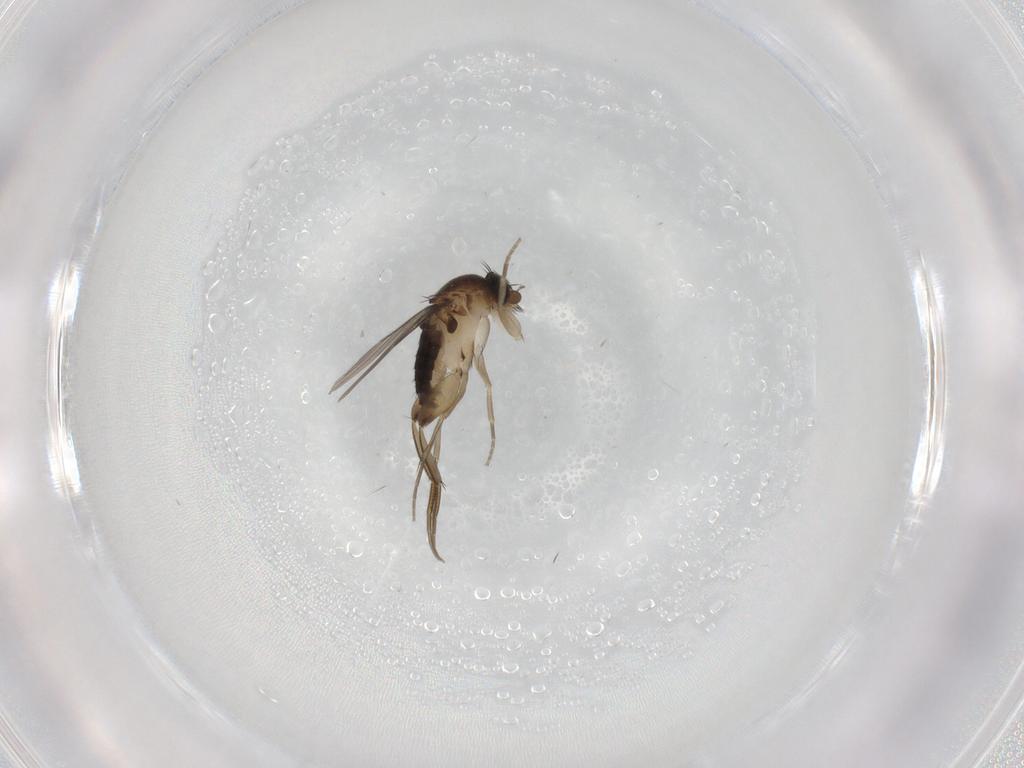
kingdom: Animalia
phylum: Arthropoda
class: Insecta
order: Diptera
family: Phoridae
